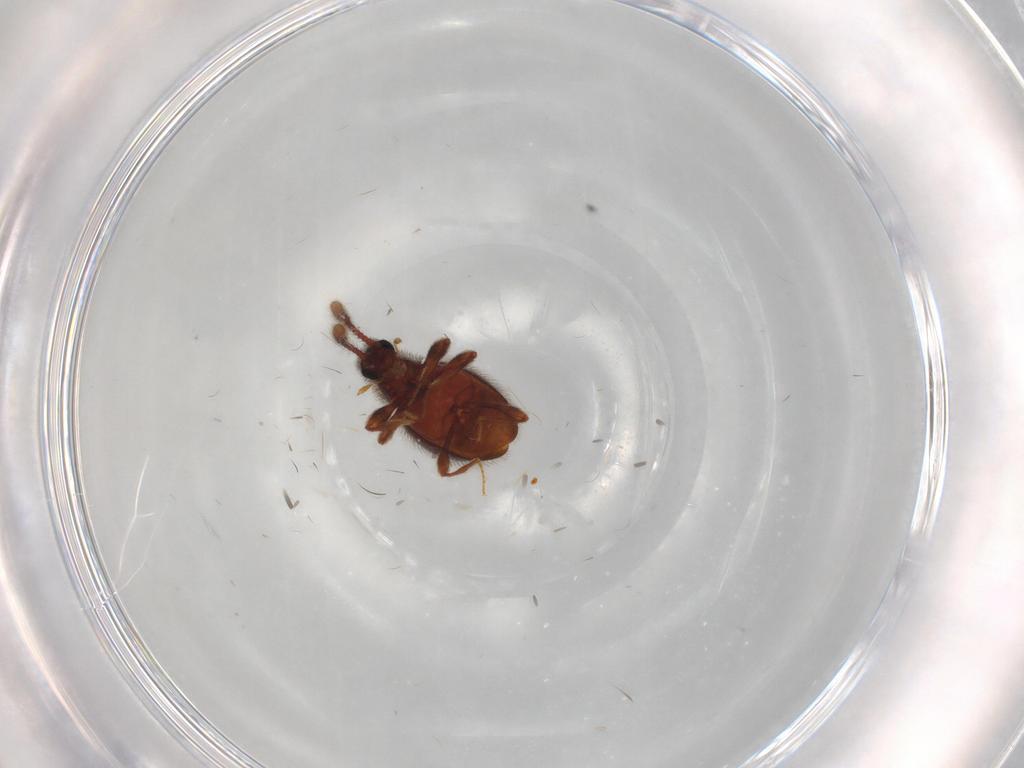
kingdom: Animalia
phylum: Arthropoda
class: Insecta
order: Coleoptera
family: Staphylinidae
